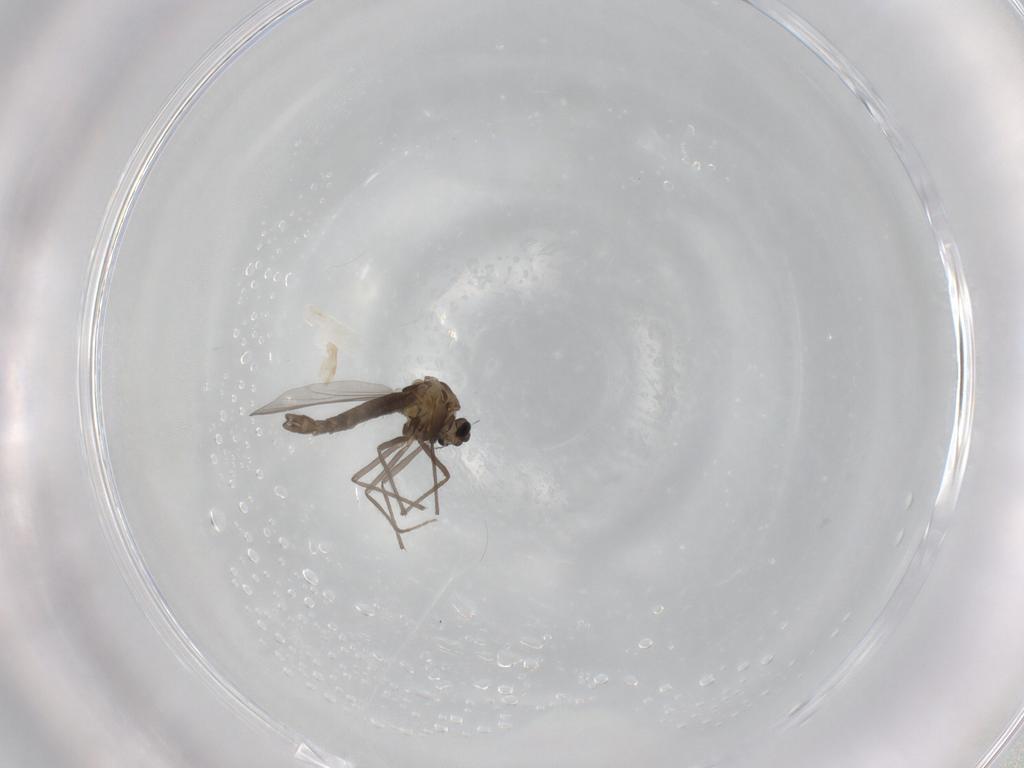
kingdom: Animalia
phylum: Arthropoda
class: Insecta
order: Diptera
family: Chironomidae
